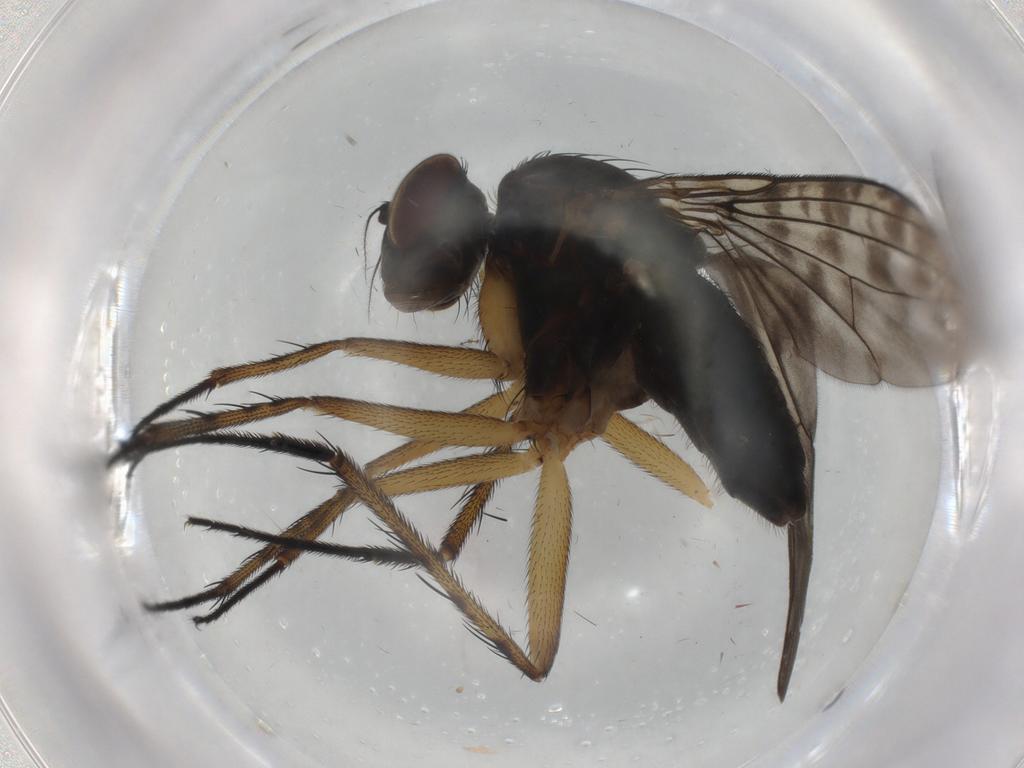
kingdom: Animalia
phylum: Arthropoda
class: Insecta
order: Diptera
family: Dolichopodidae
